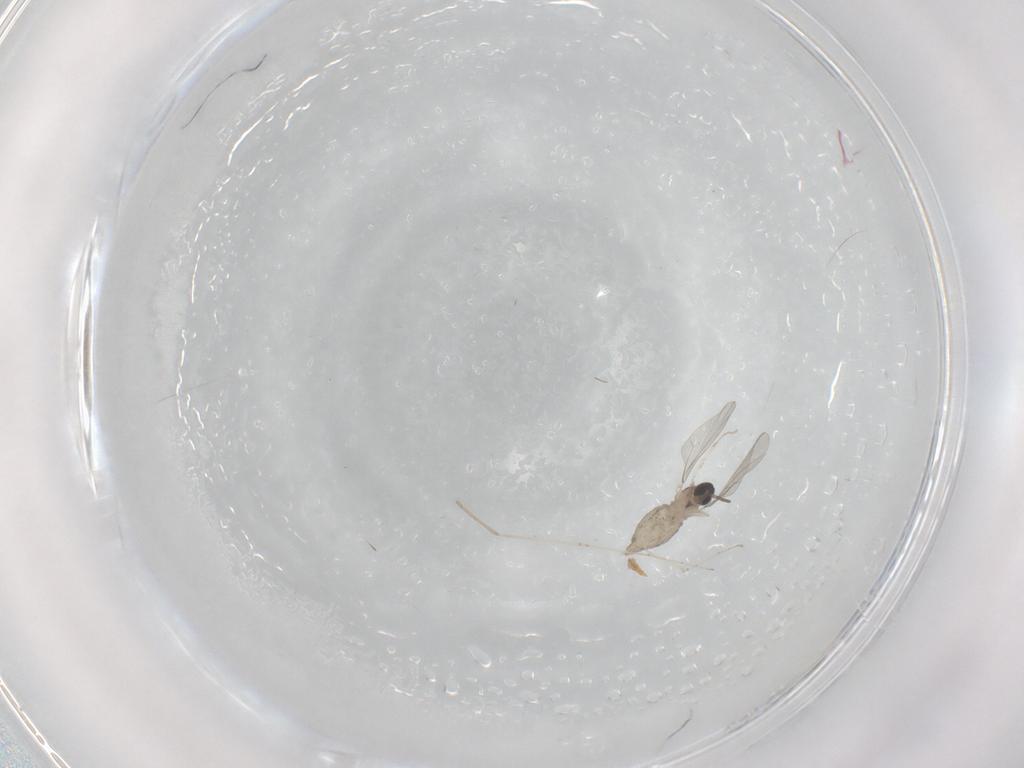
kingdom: Animalia
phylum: Arthropoda
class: Insecta
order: Diptera
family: Cecidomyiidae
